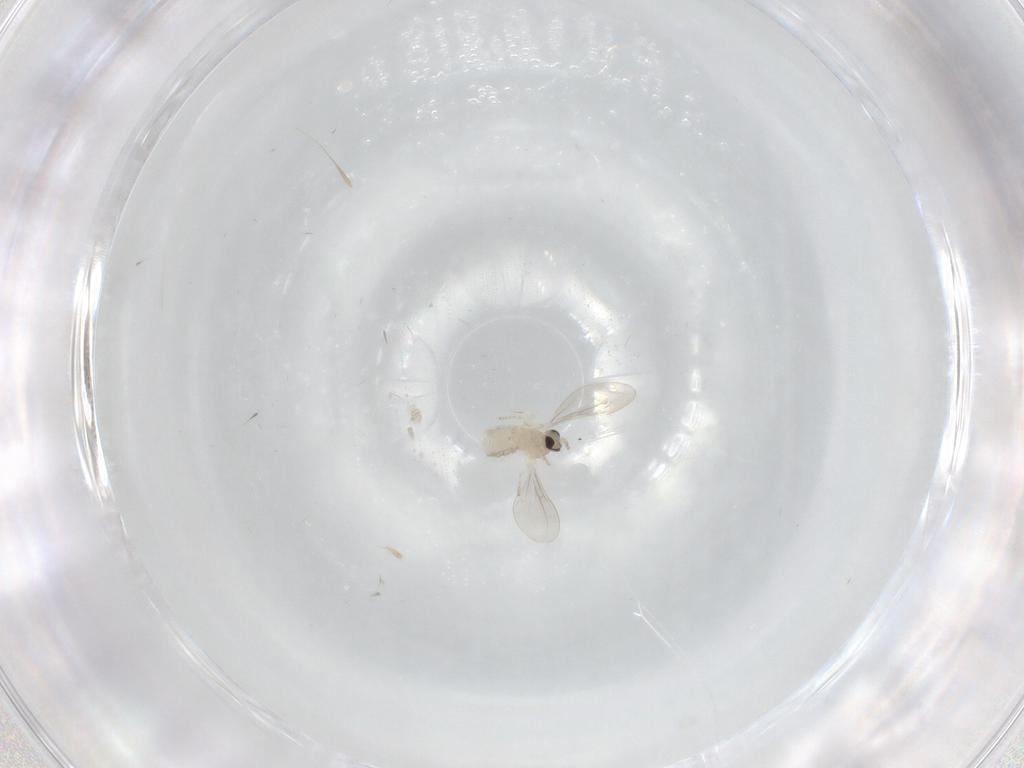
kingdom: Animalia
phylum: Arthropoda
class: Insecta
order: Diptera
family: Cecidomyiidae
